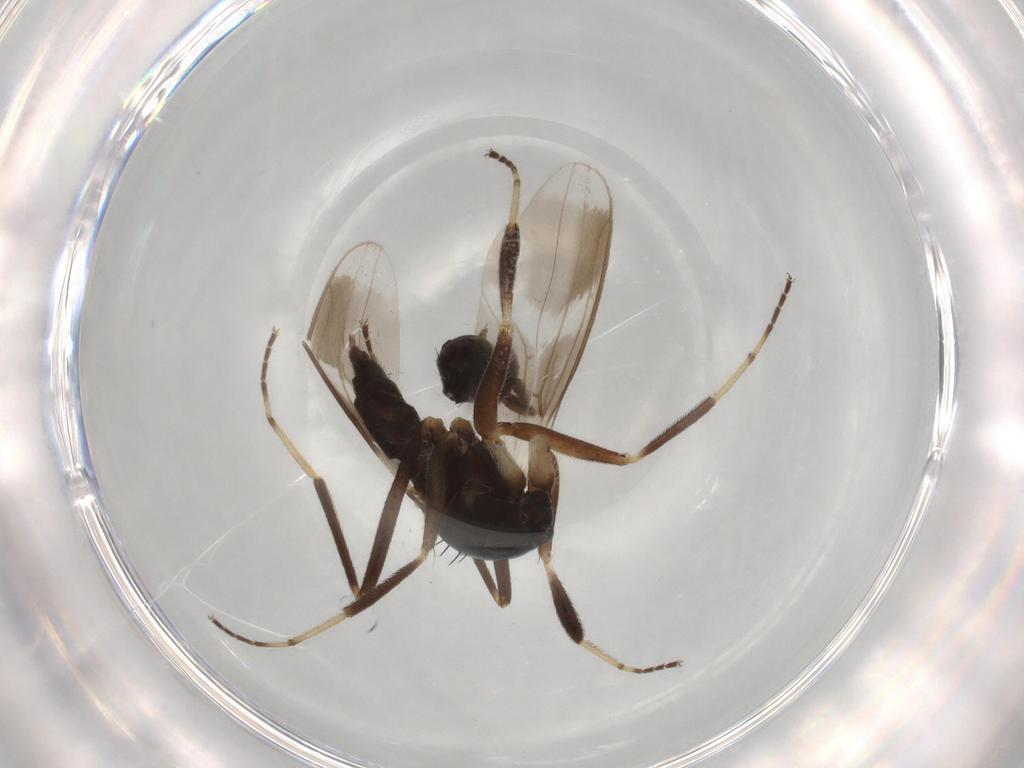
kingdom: Animalia
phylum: Arthropoda
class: Insecta
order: Diptera
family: Hybotidae
